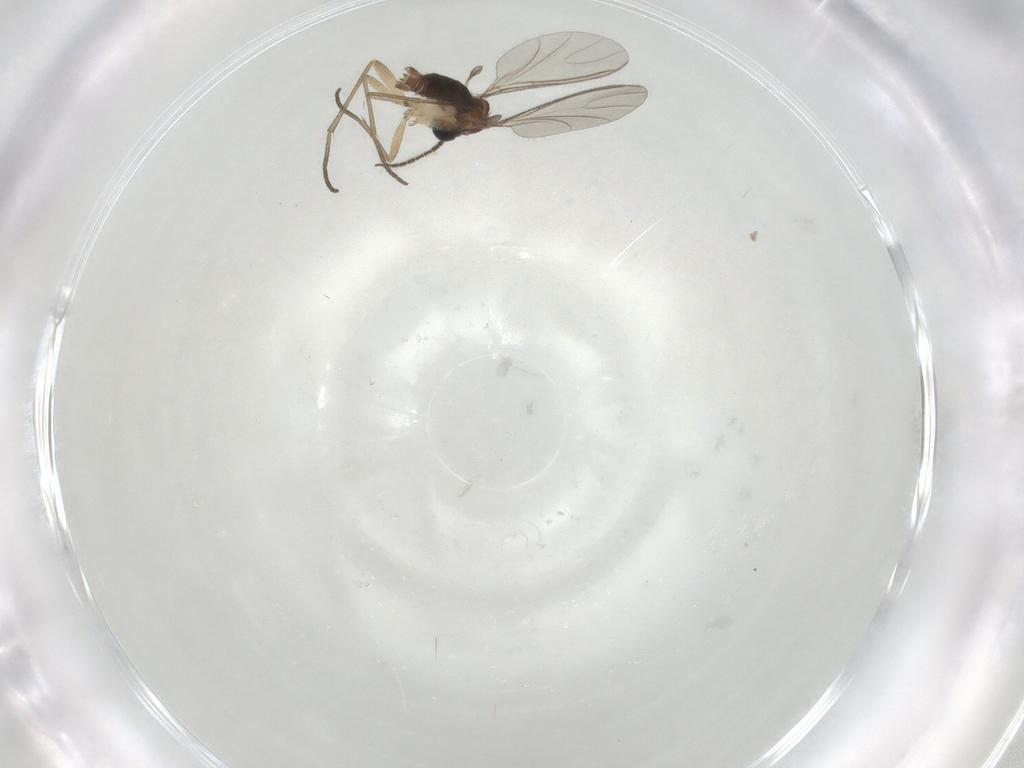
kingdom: Animalia
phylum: Arthropoda
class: Insecta
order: Diptera
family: Sciaridae
